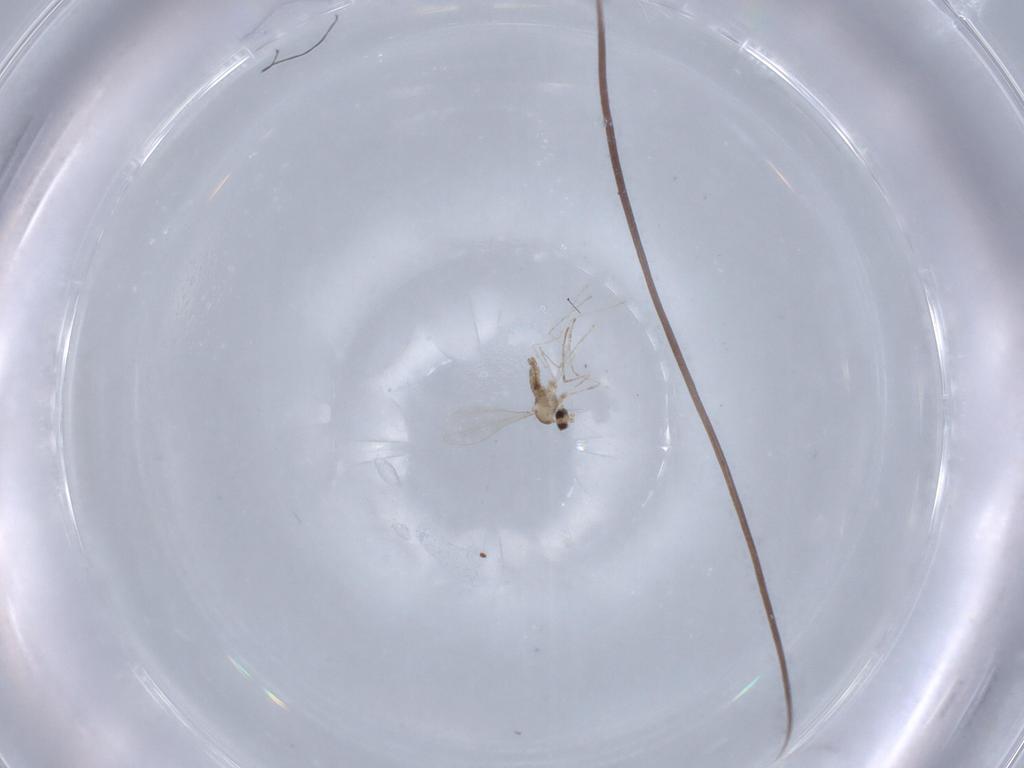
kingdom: Animalia
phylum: Arthropoda
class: Insecta
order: Diptera
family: Cecidomyiidae
